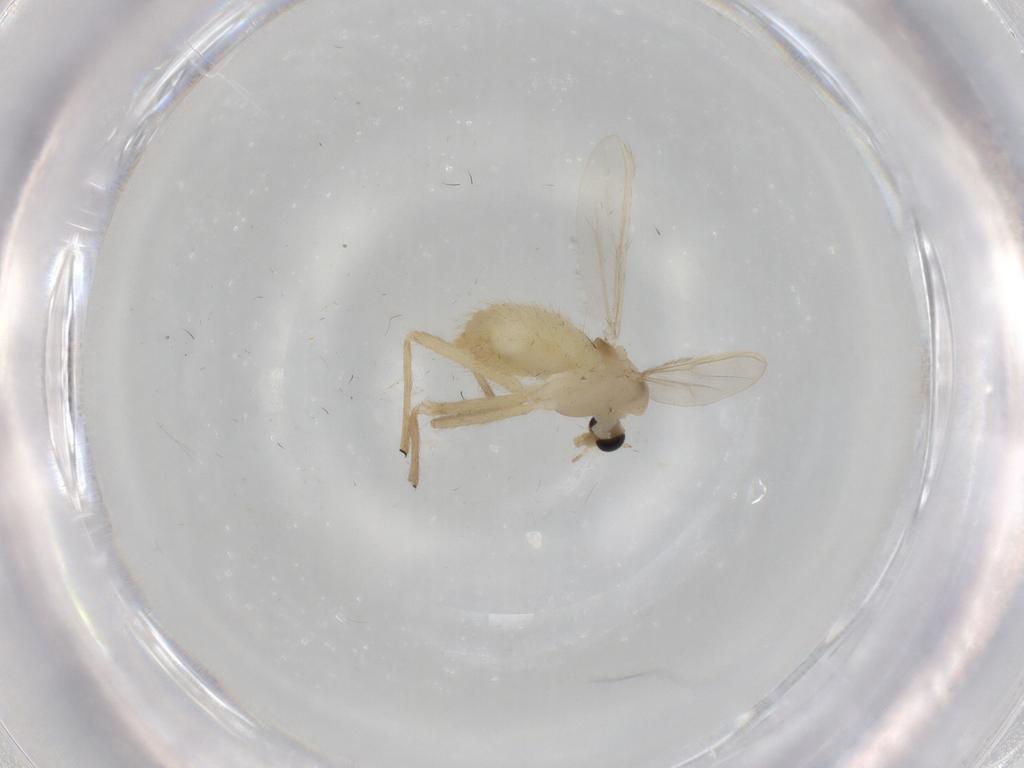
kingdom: Animalia
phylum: Arthropoda
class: Insecta
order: Diptera
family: Chironomidae
